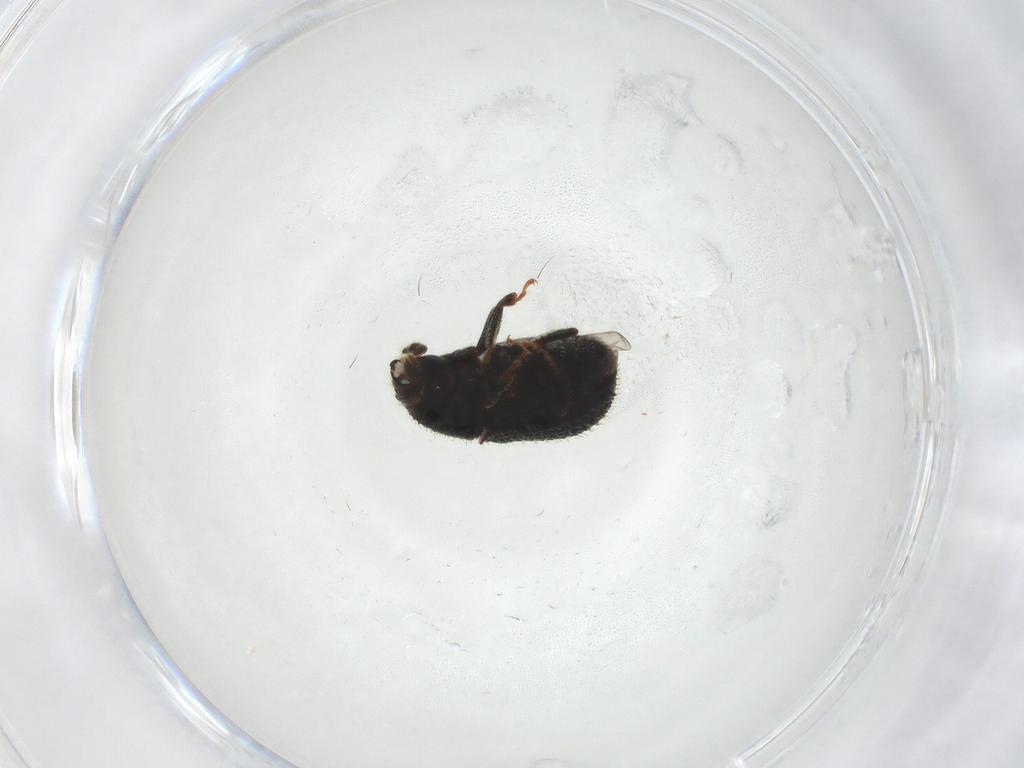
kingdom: Animalia
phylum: Arthropoda
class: Insecta
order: Coleoptera
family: Curculionidae
